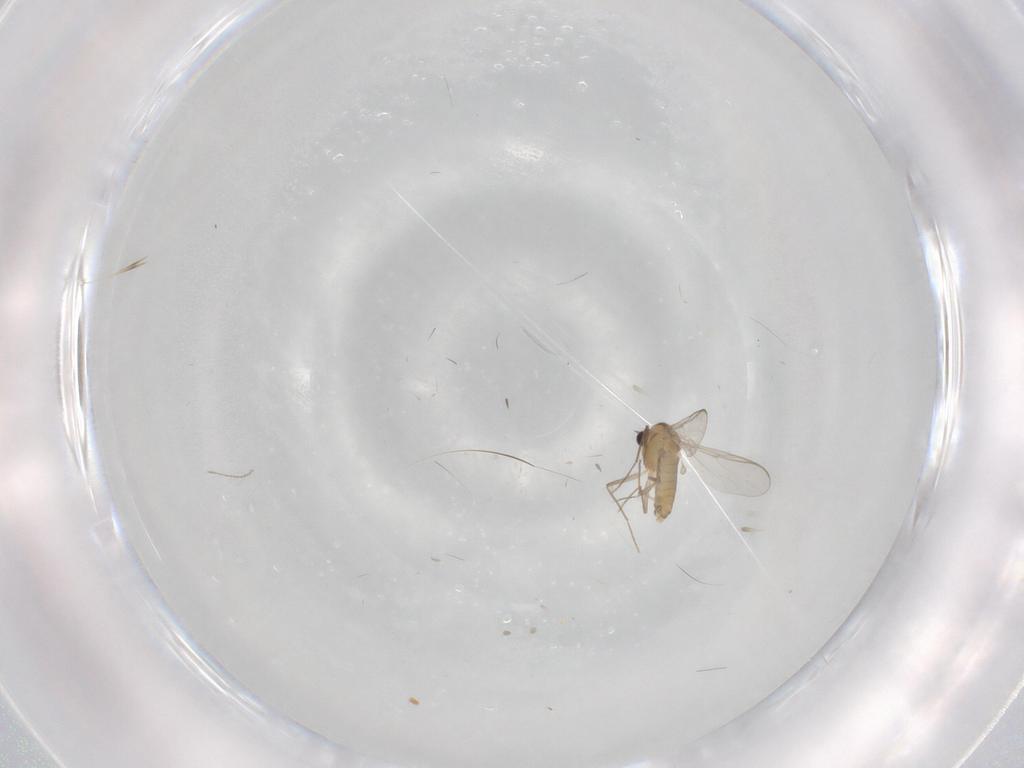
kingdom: Animalia
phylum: Arthropoda
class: Insecta
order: Diptera
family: Chironomidae
